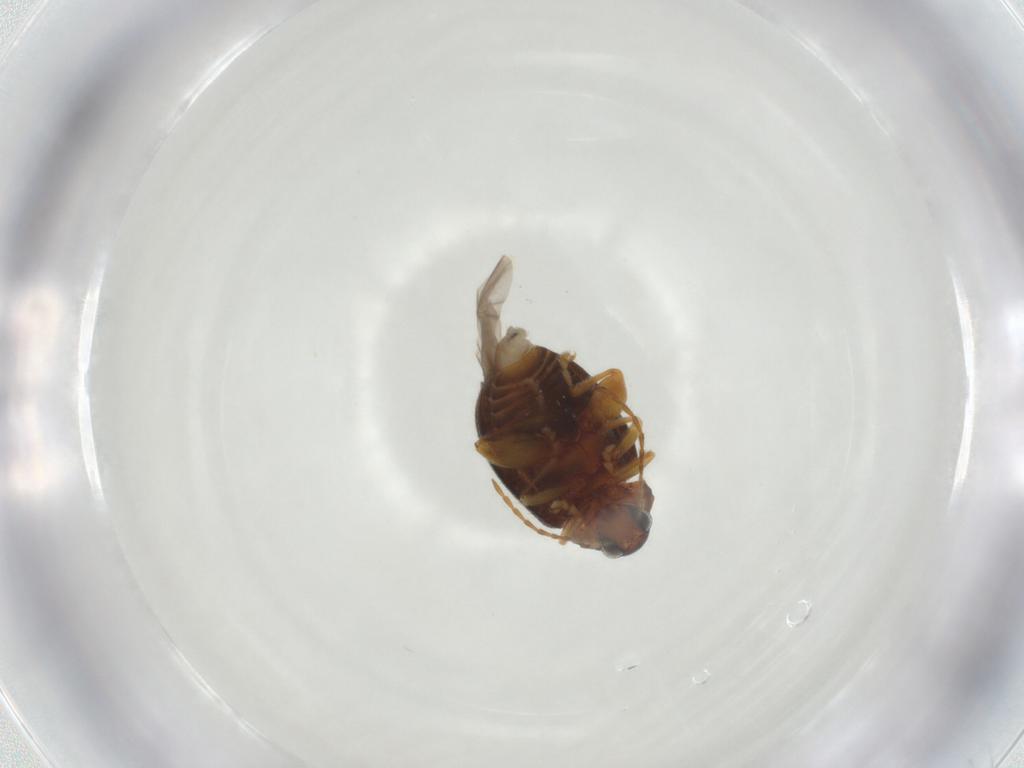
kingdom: Animalia
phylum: Arthropoda
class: Insecta
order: Coleoptera
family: Chrysomelidae
